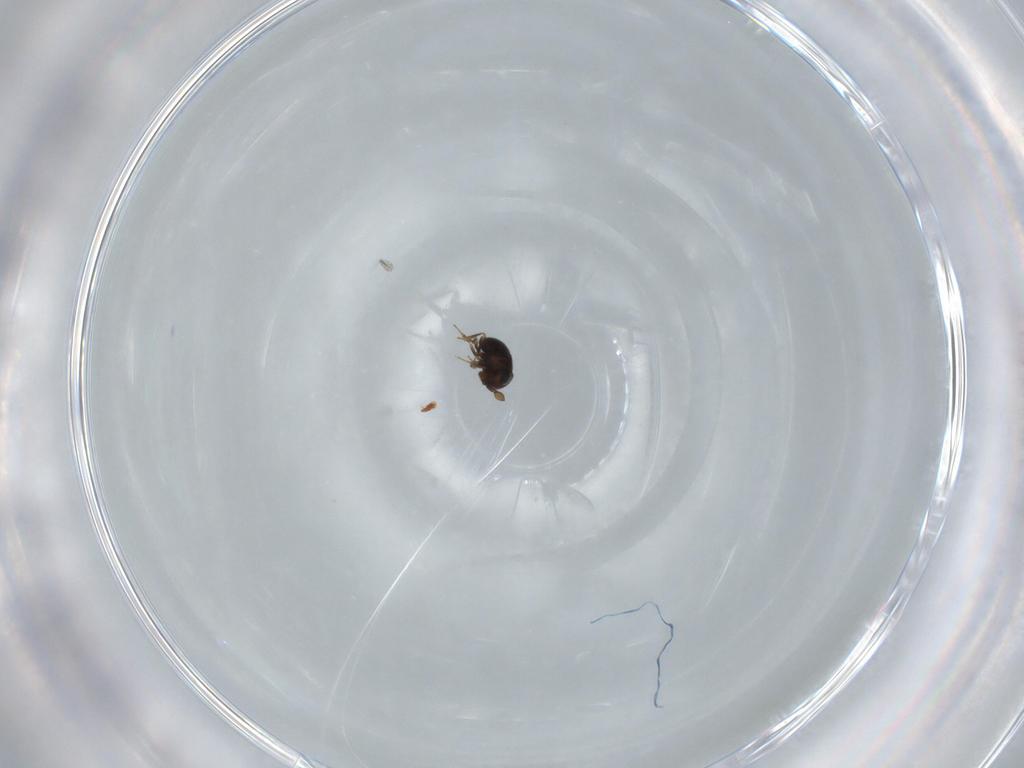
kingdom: Animalia
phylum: Arthropoda
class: Insecta
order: Hymenoptera
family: Scelionidae
